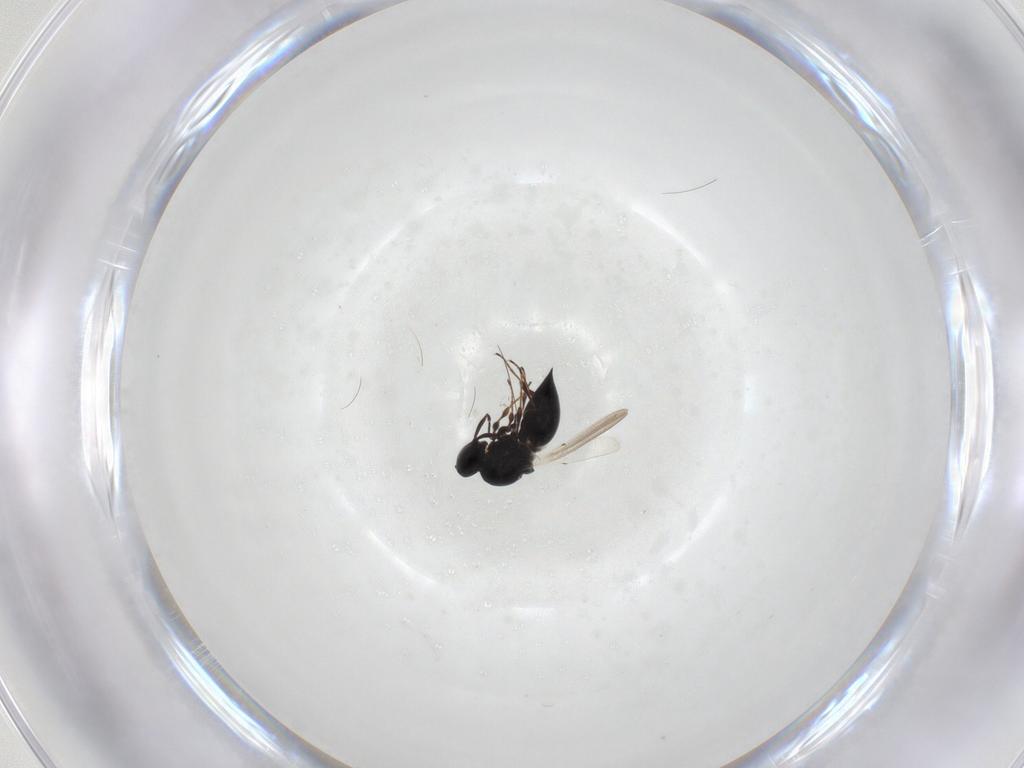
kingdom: Animalia
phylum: Arthropoda
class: Insecta
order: Hymenoptera
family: Platygastridae
